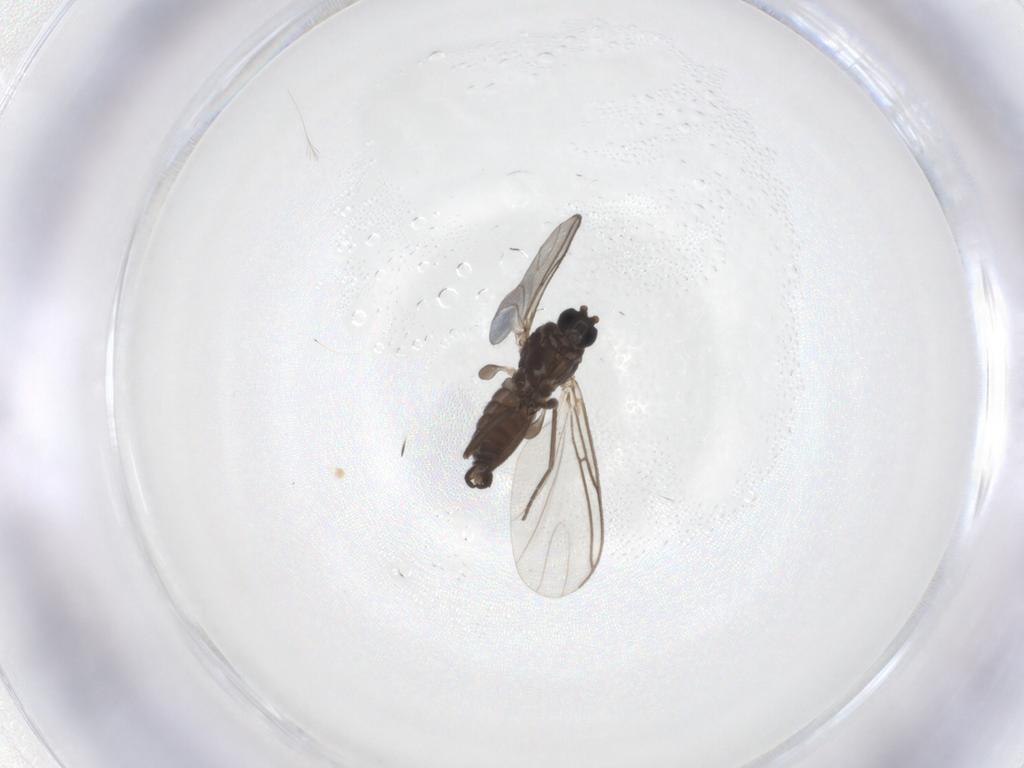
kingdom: Animalia
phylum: Arthropoda
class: Insecta
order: Diptera
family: Sciaridae
